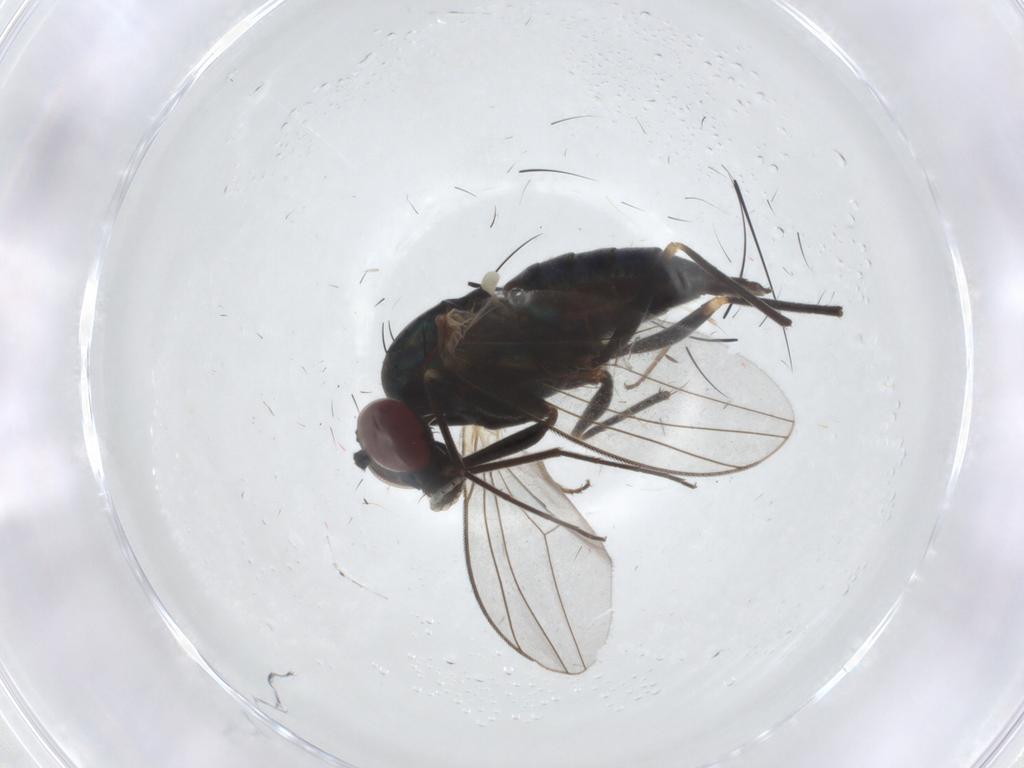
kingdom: Animalia
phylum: Arthropoda
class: Insecta
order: Diptera
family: Dolichopodidae
